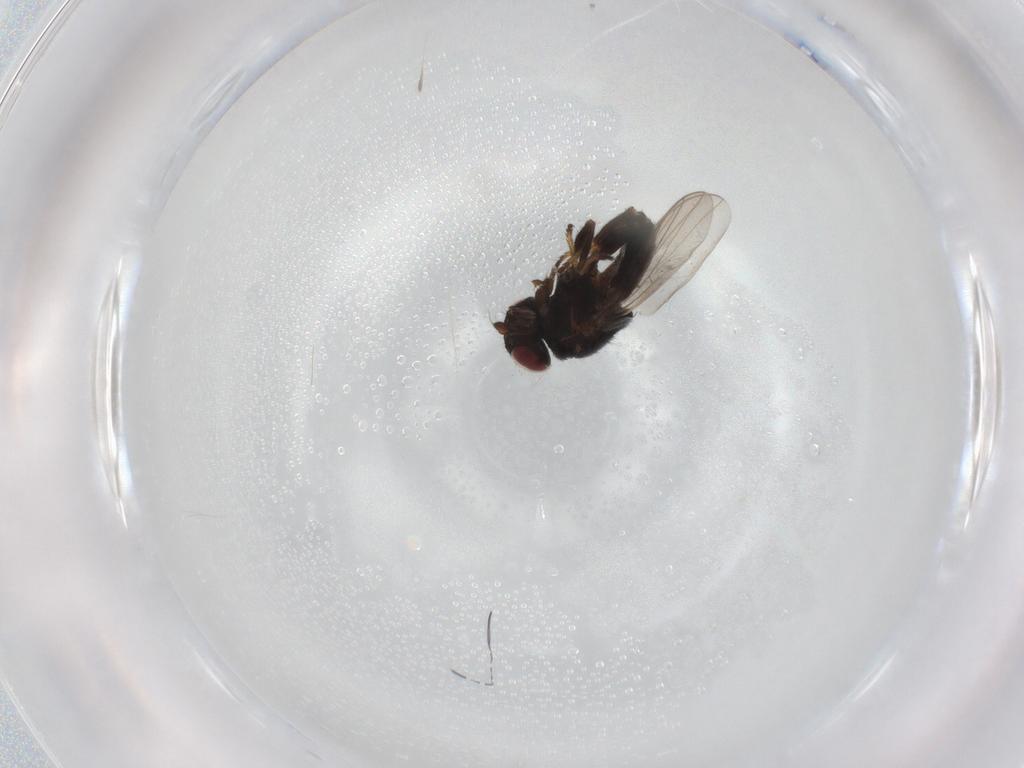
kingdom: Animalia
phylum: Arthropoda
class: Insecta
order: Diptera
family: Chloropidae
